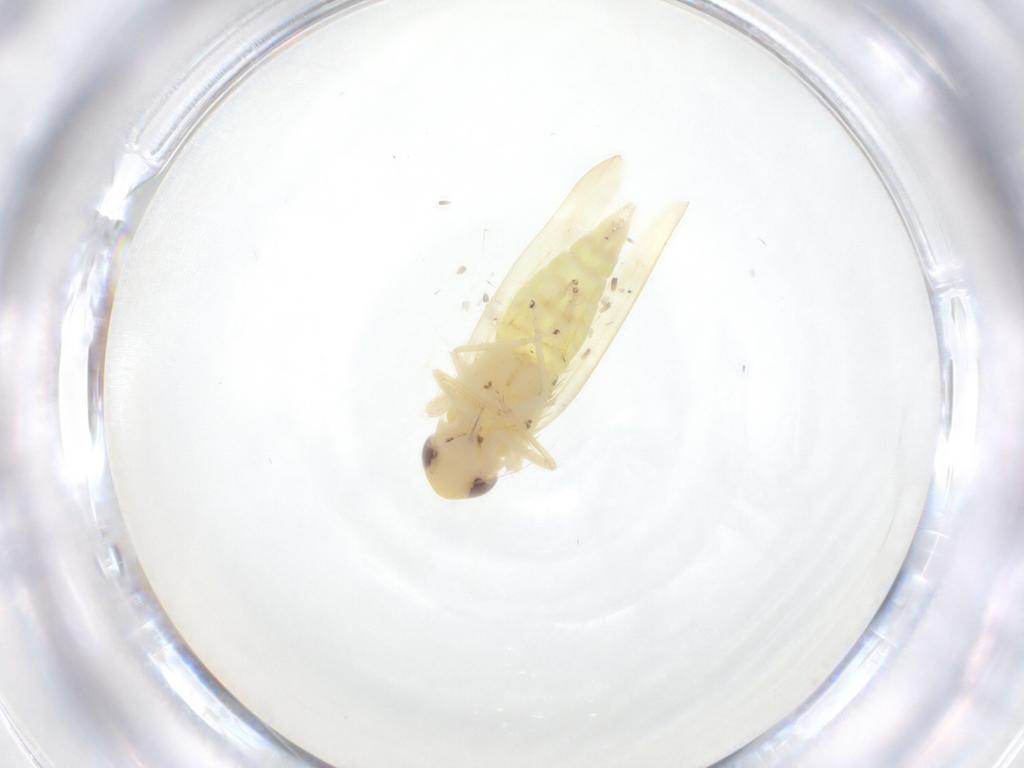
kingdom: Animalia
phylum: Arthropoda
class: Insecta
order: Hemiptera
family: Cicadellidae
